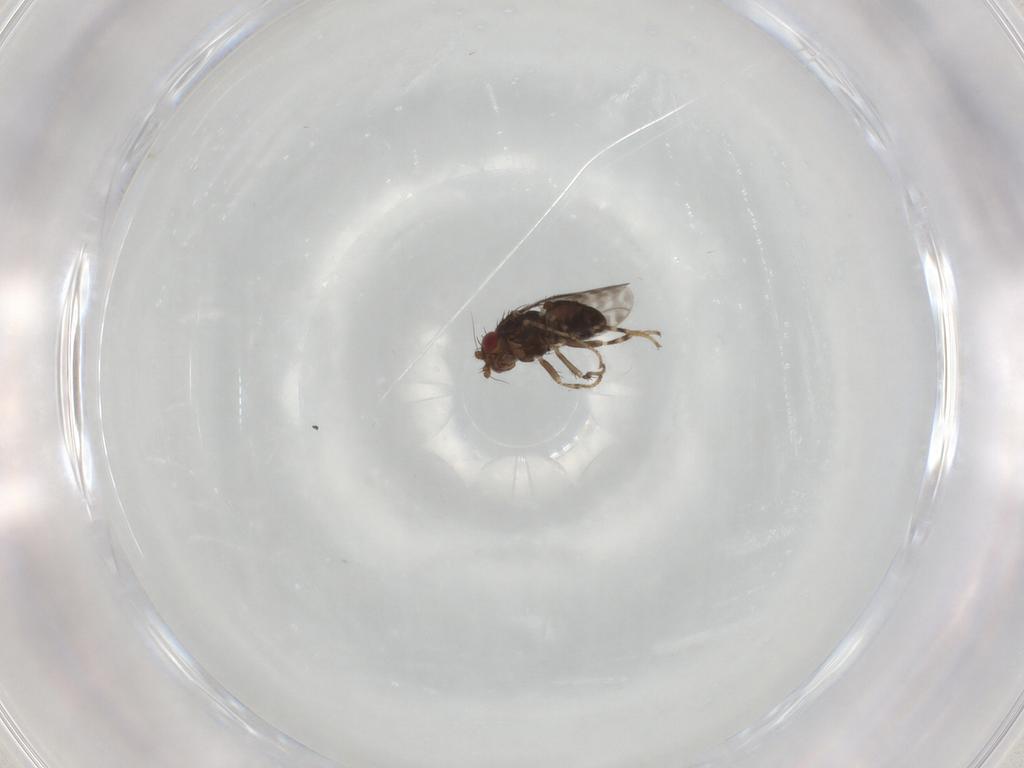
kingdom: Animalia
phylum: Arthropoda
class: Insecta
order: Diptera
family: Sphaeroceridae
